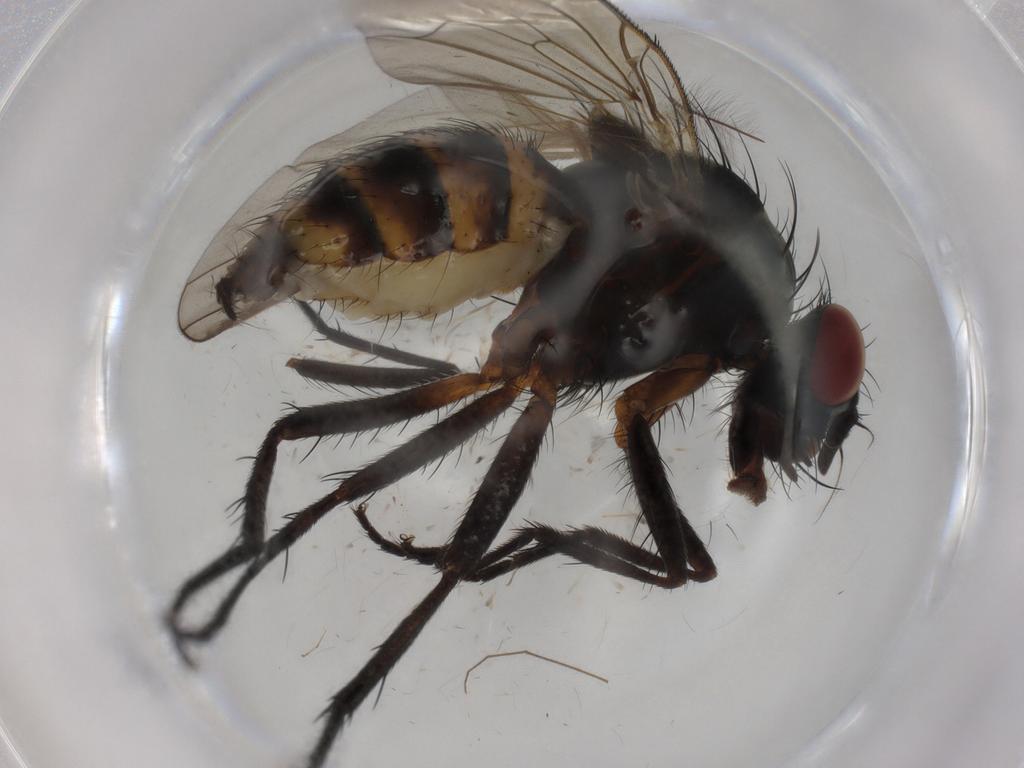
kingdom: Animalia
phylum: Arthropoda
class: Insecta
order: Diptera
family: Anthomyiidae
